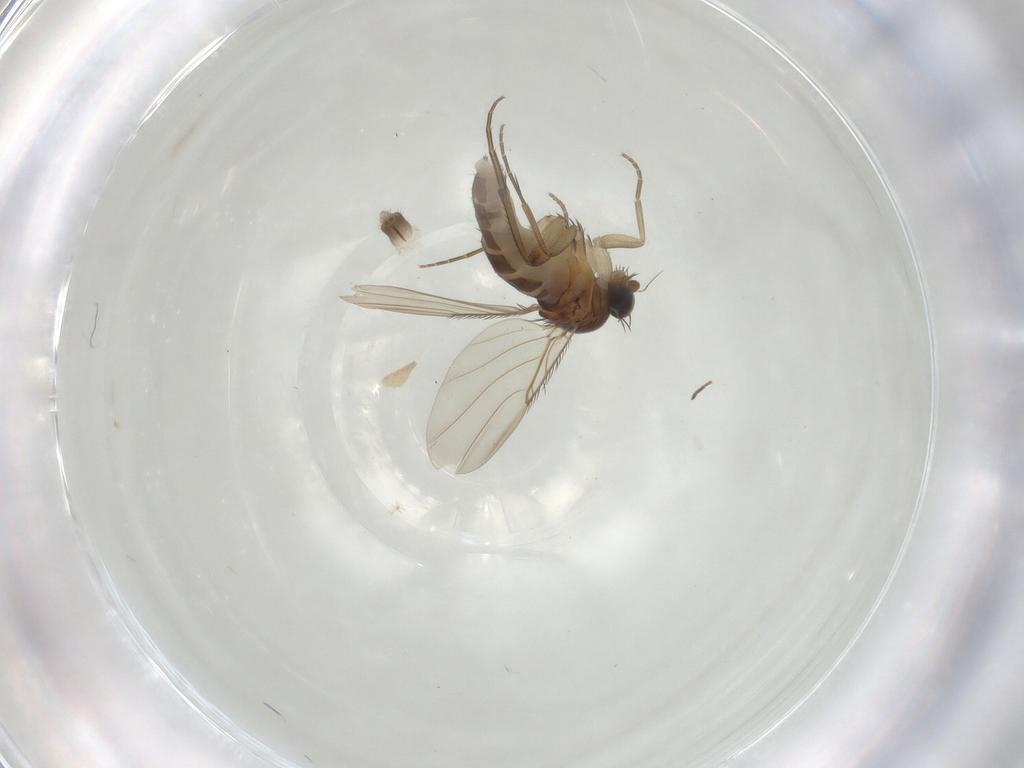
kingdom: Animalia
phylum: Arthropoda
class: Insecta
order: Diptera
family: Phoridae
